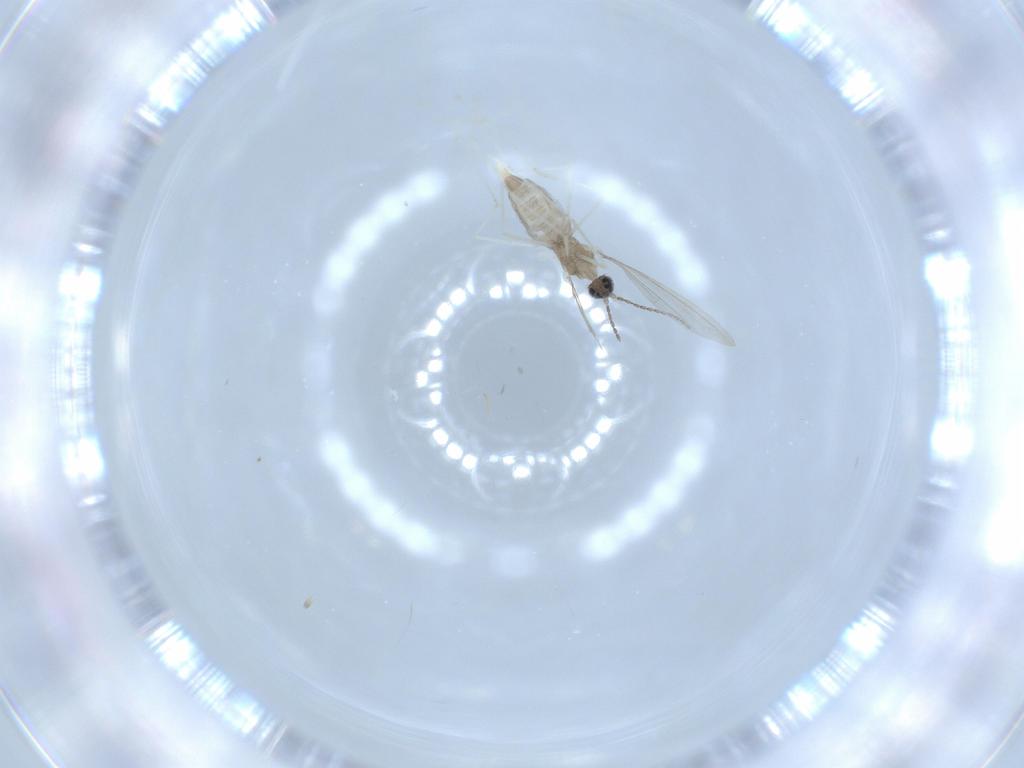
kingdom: Animalia
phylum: Arthropoda
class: Insecta
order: Diptera
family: Cecidomyiidae
